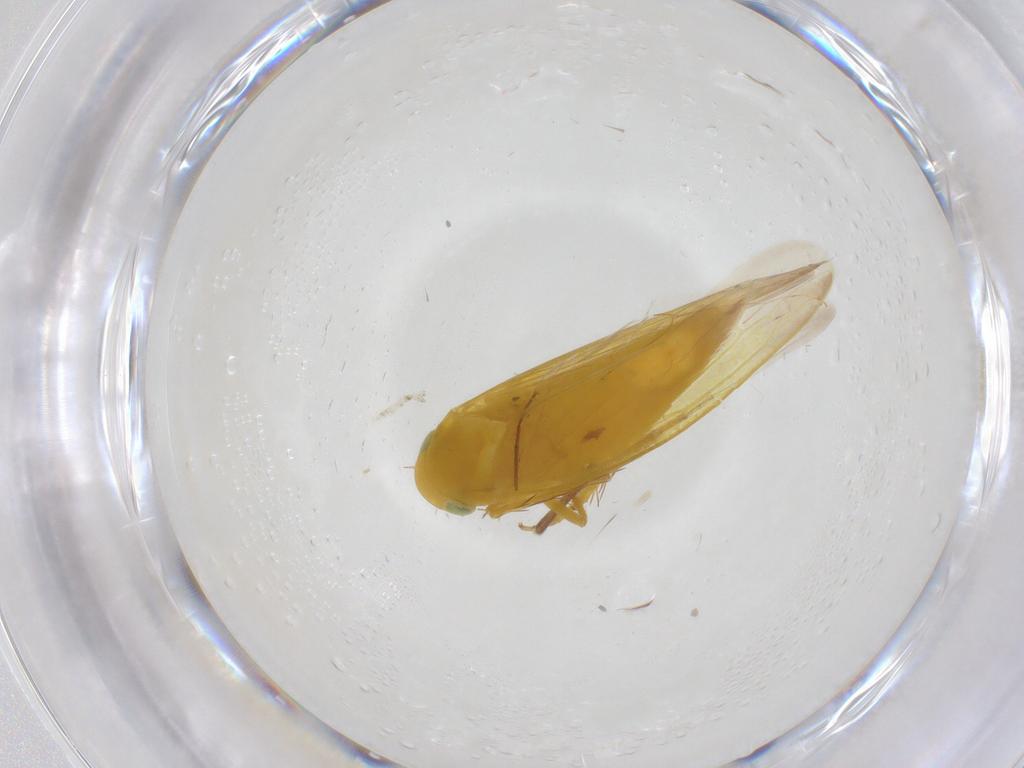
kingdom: Animalia
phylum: Arthropoda
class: Insecta
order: Hemiptera
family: Cicadellidae
